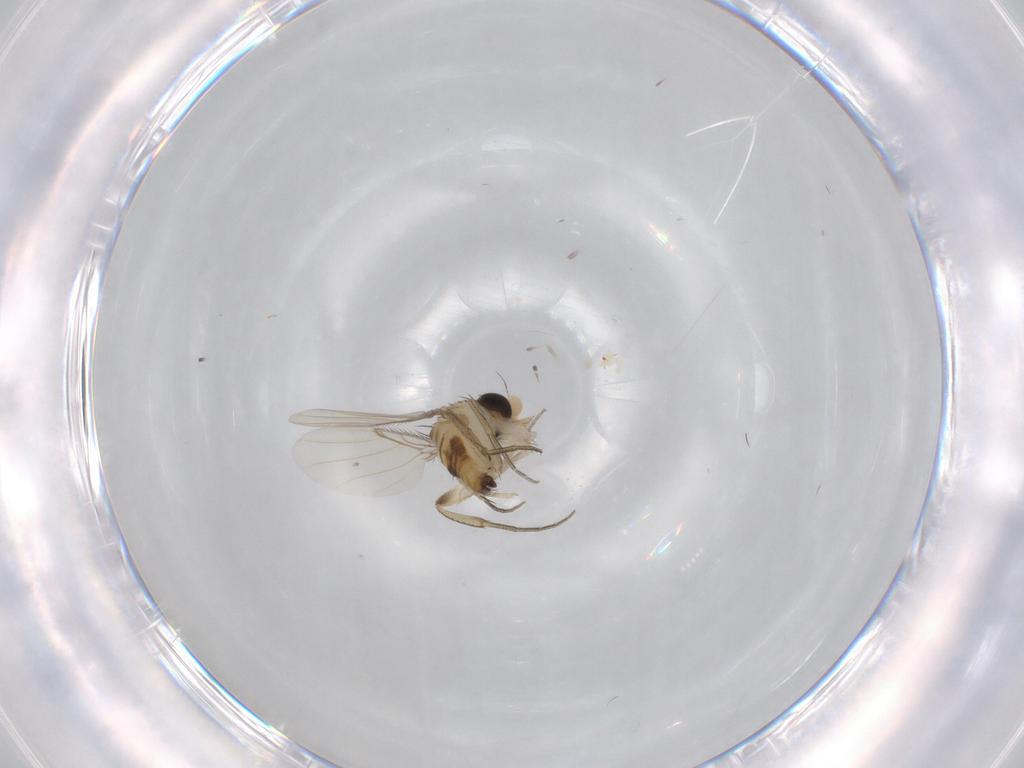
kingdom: Animalia
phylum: Arthropoda
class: Insecta
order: Diptera
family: Phoridae
